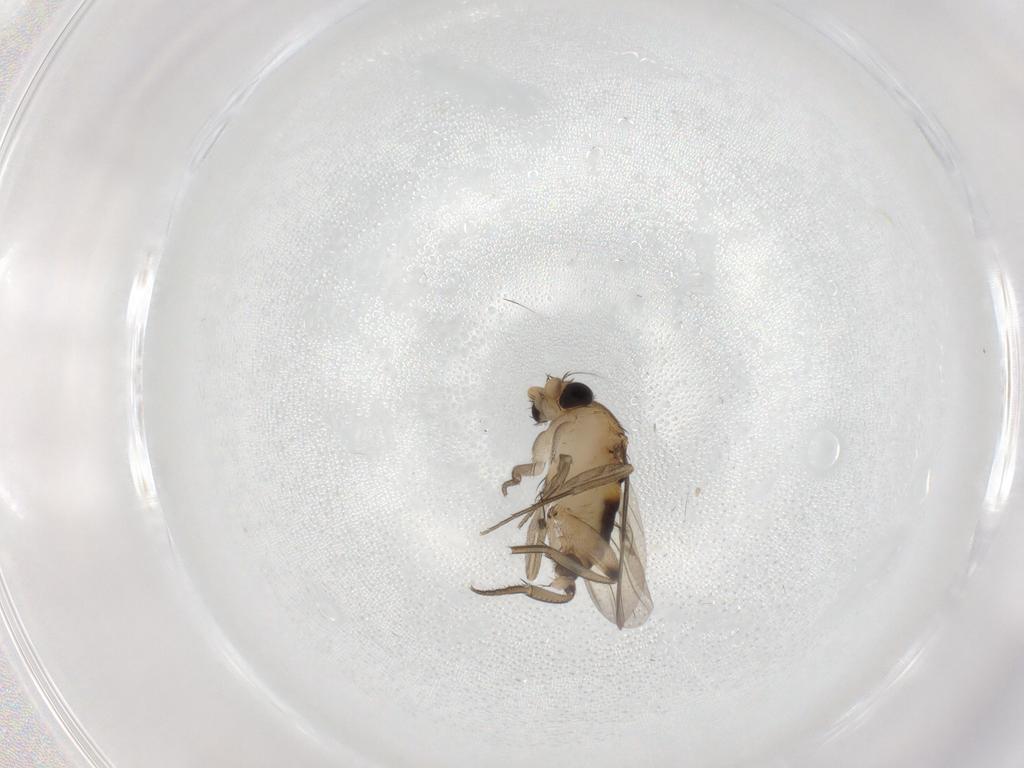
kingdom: Animalia
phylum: Arthropoda
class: Insecta
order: Diptera
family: Phoridae
